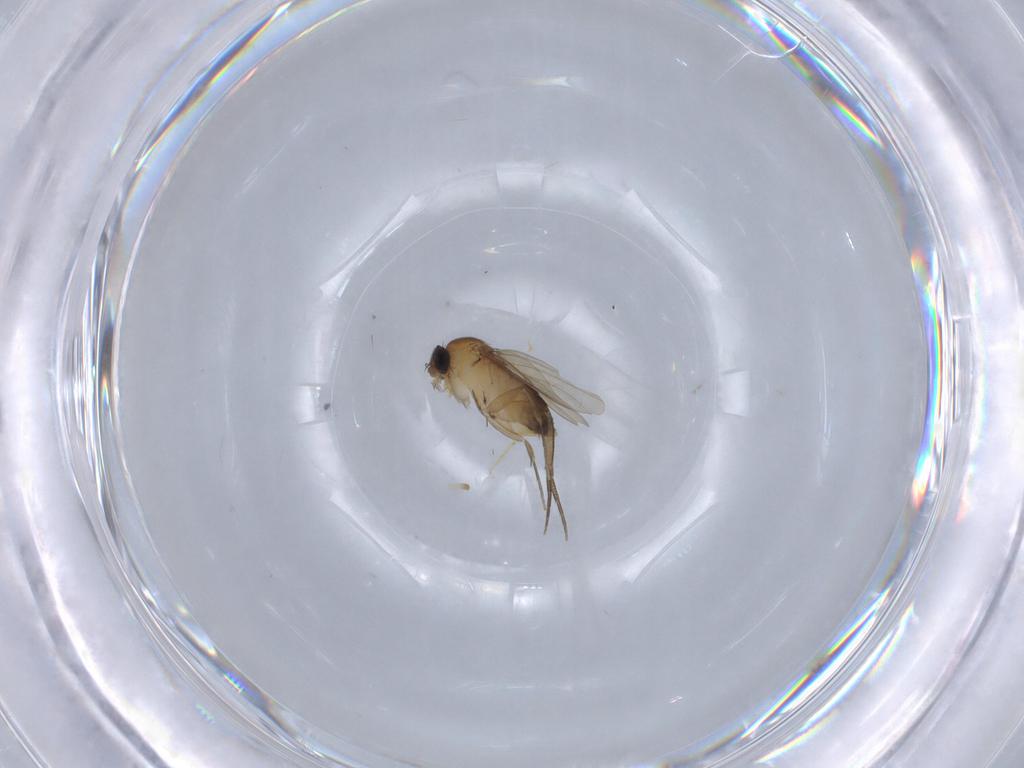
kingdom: Animalia
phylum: Arthropoda
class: Insecta
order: Diptera
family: Phoridae
